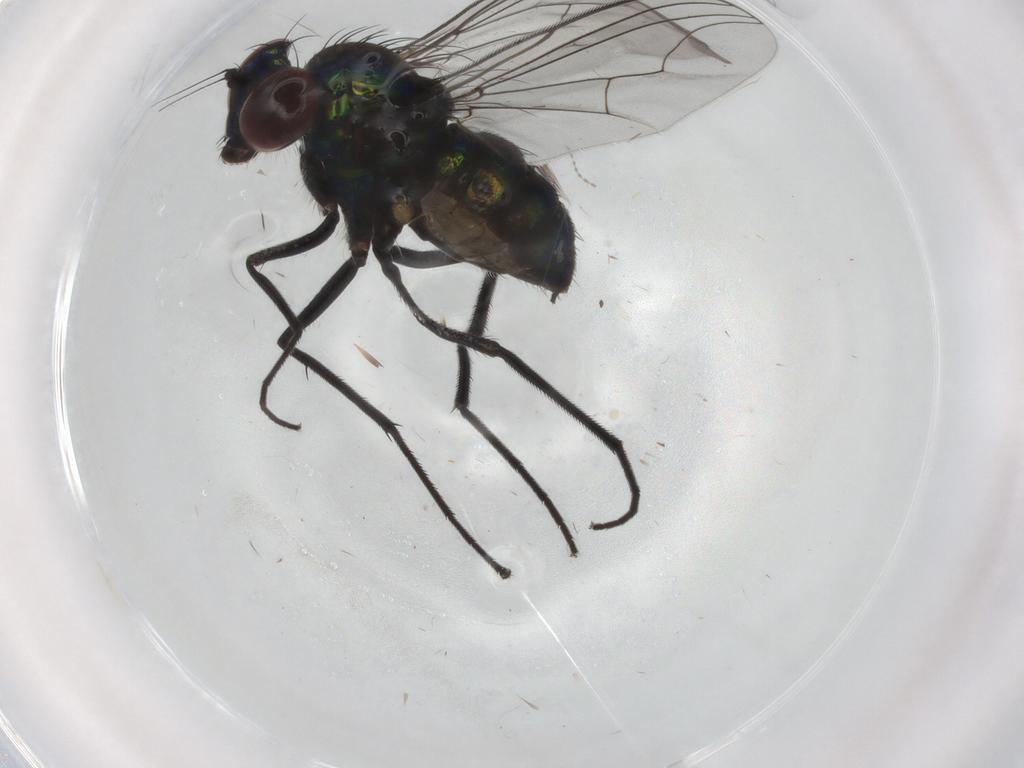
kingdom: Animalia
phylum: Arthropoda
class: Insecta
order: Diptera
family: Dolichopodidae
